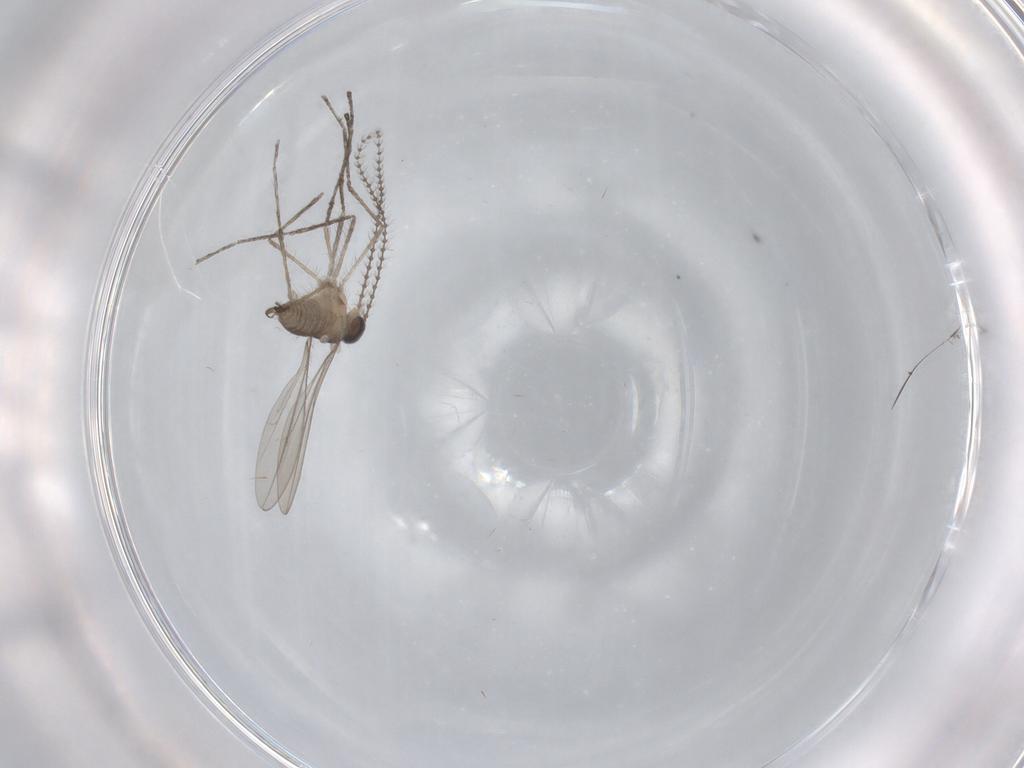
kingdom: Animalia
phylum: Arthropoda
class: Insecta
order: Diptera
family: Cecidomyiidae
